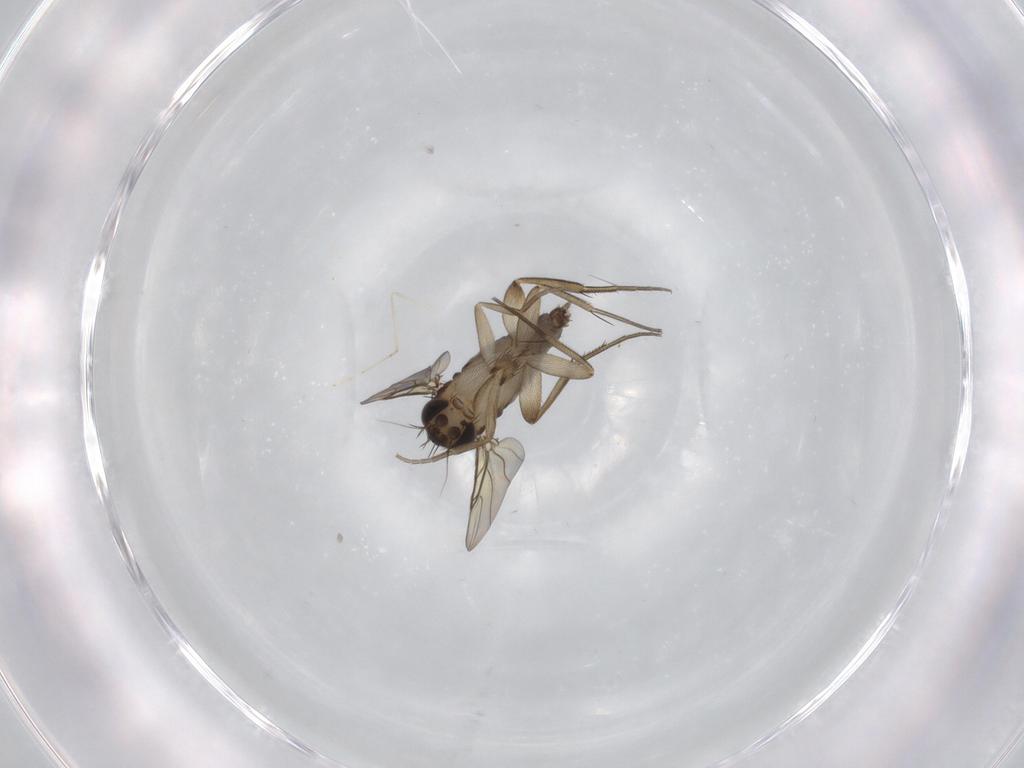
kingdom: Animalia
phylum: Arthropoda
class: Insecta
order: Diptera
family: Phoridae
